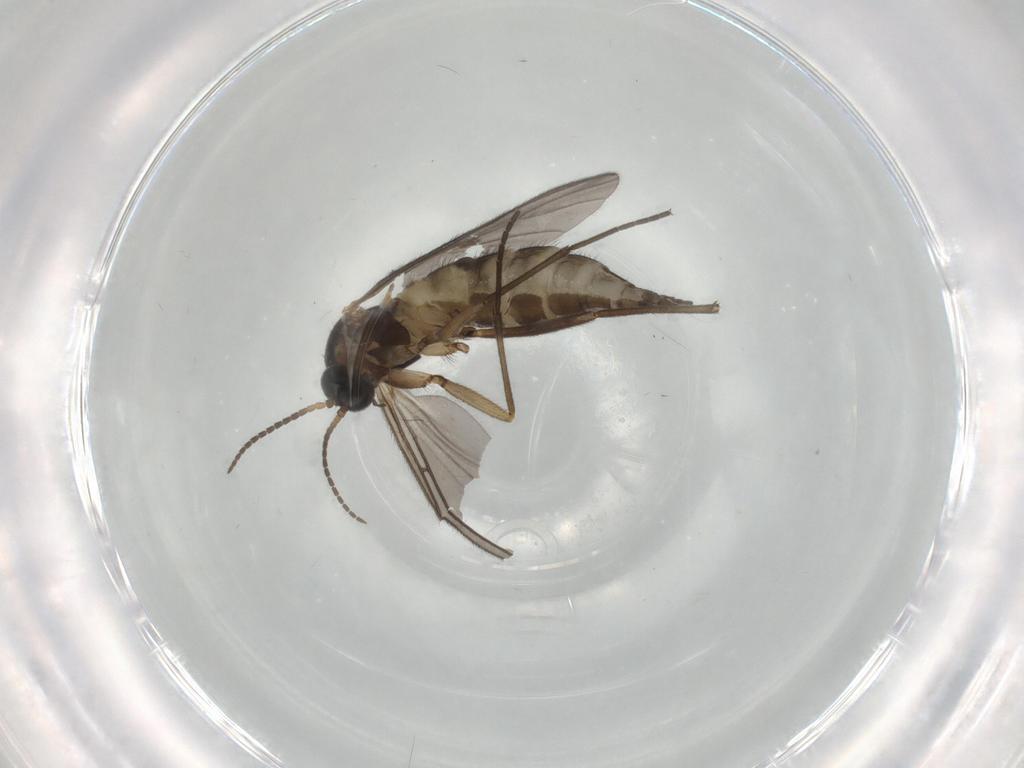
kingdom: Animalia
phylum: Arthropoda
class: Insecta
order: Diptera
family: Sciaridae
